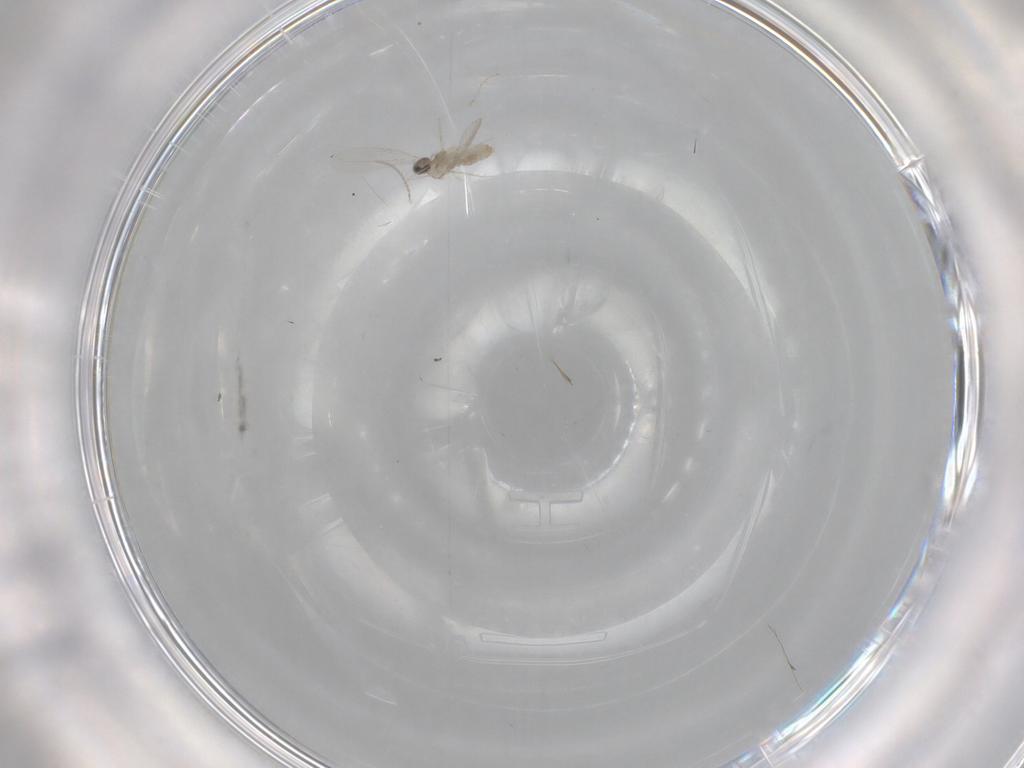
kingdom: Animalia
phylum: Arthropoda
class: Insecta
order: Diptera
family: Cecidomyiidae
